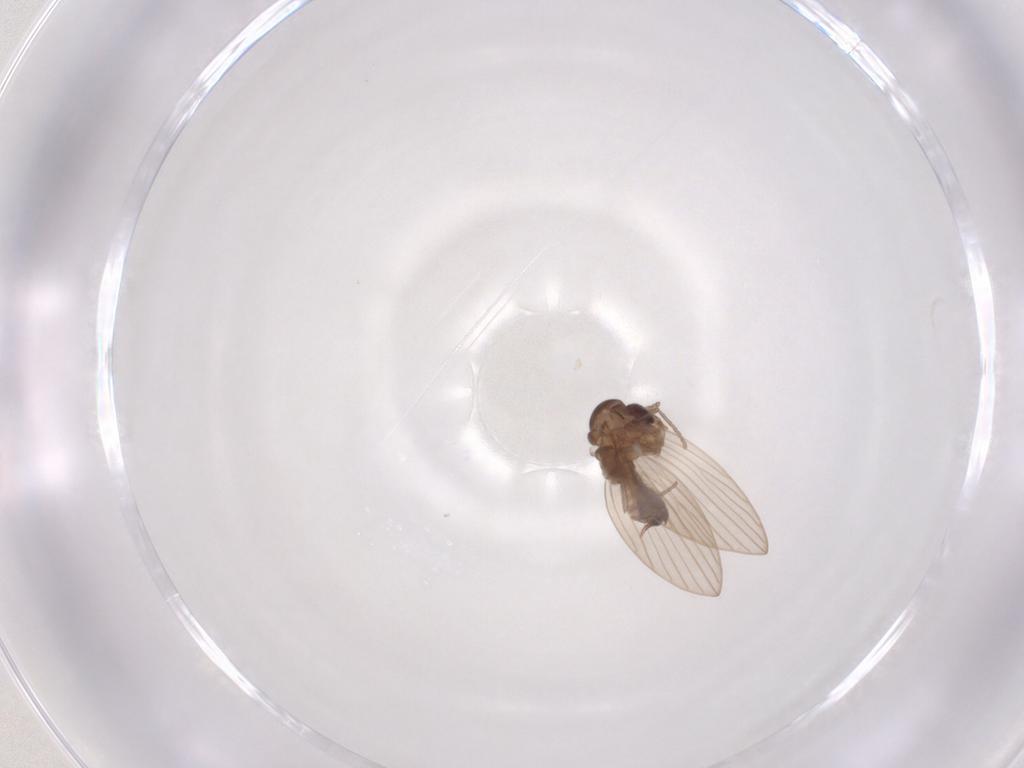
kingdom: Animalia
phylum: Arthropoda
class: Insecta
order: Diptera
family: Psychodidae
